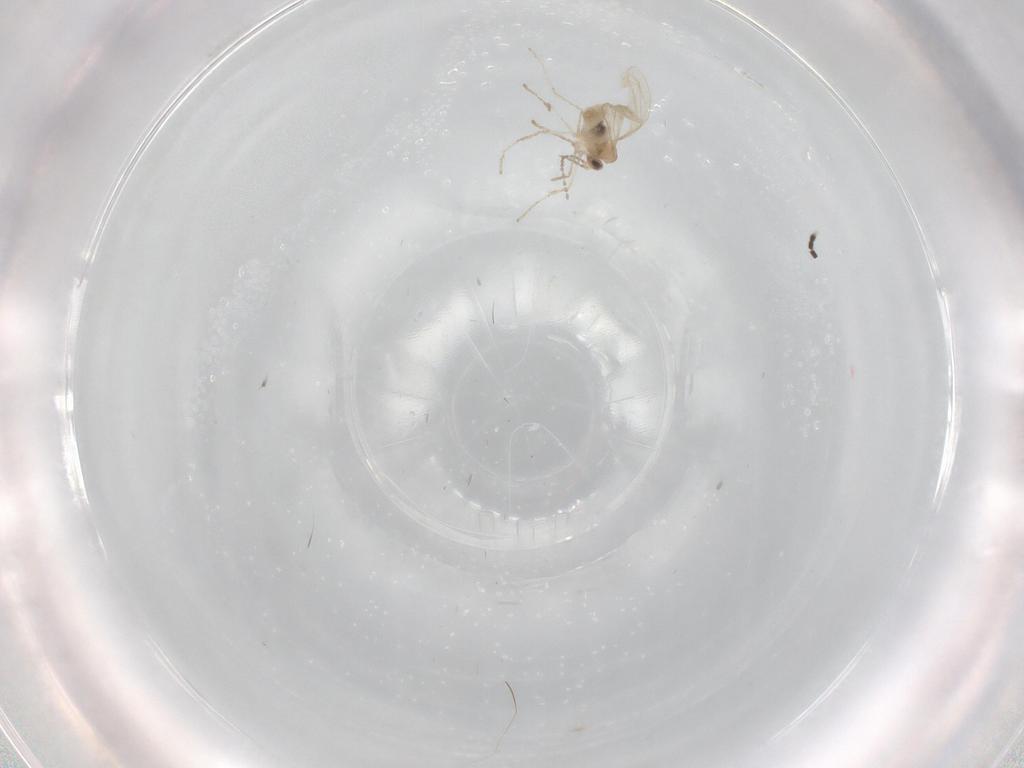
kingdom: Animalia
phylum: Arthropoda
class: Insecta
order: Diptera
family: Sciaridae
